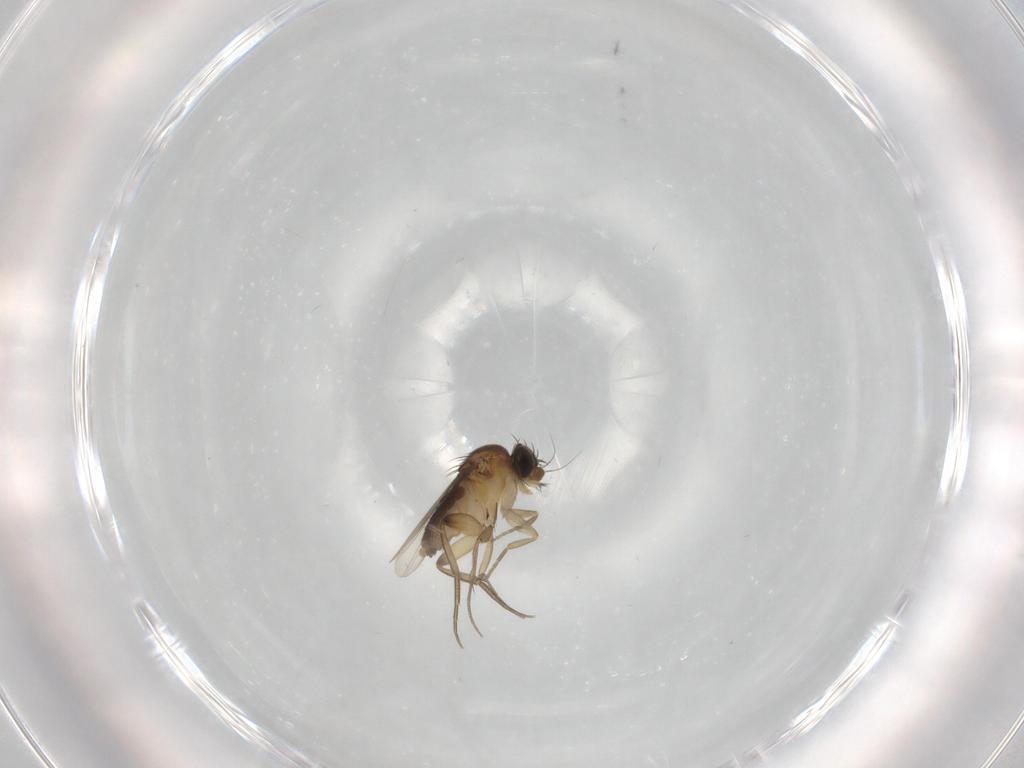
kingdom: Animalia
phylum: Arthropoda
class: Insecta
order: Diptera
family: Phoridae
